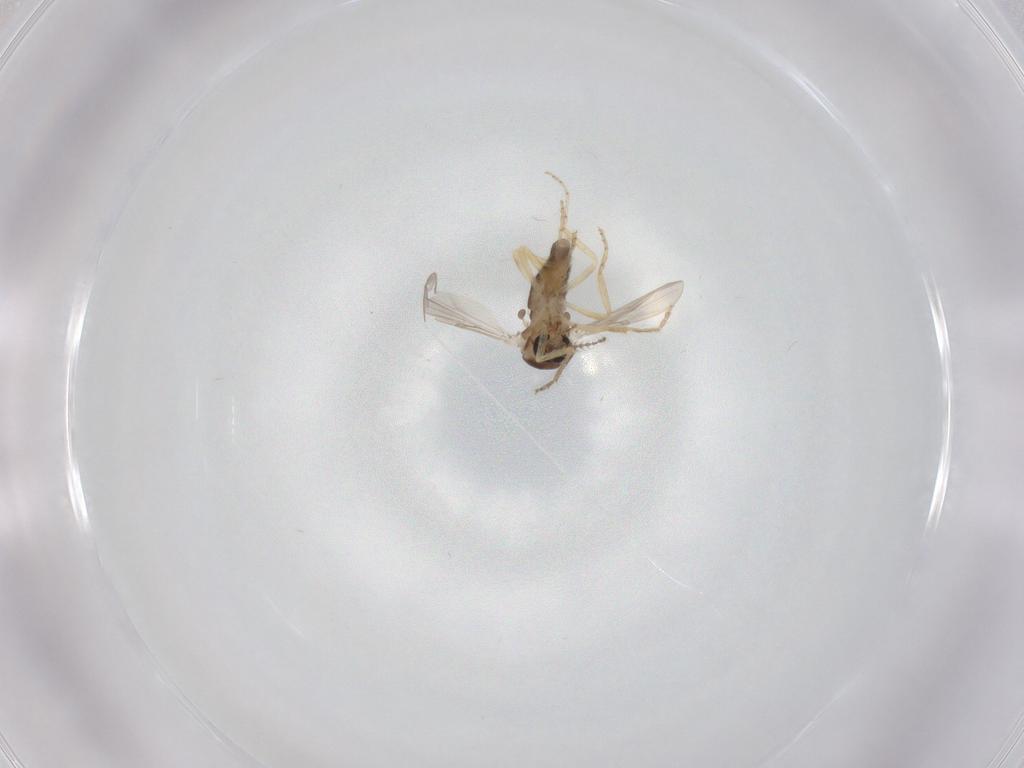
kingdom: Animalia
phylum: Arthropoda
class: Insecta
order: Diptera
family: Ceratopogonidae
